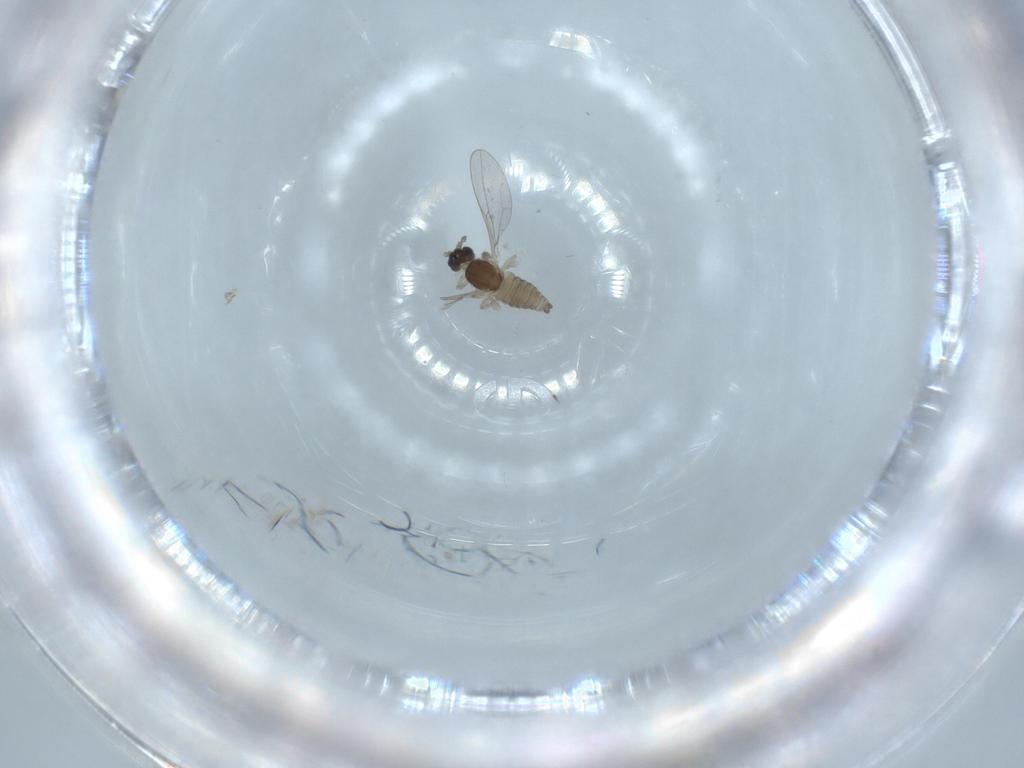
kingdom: Animalia
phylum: Arthropoda
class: Insecta
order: Diptera
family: Cecidomyiidae
